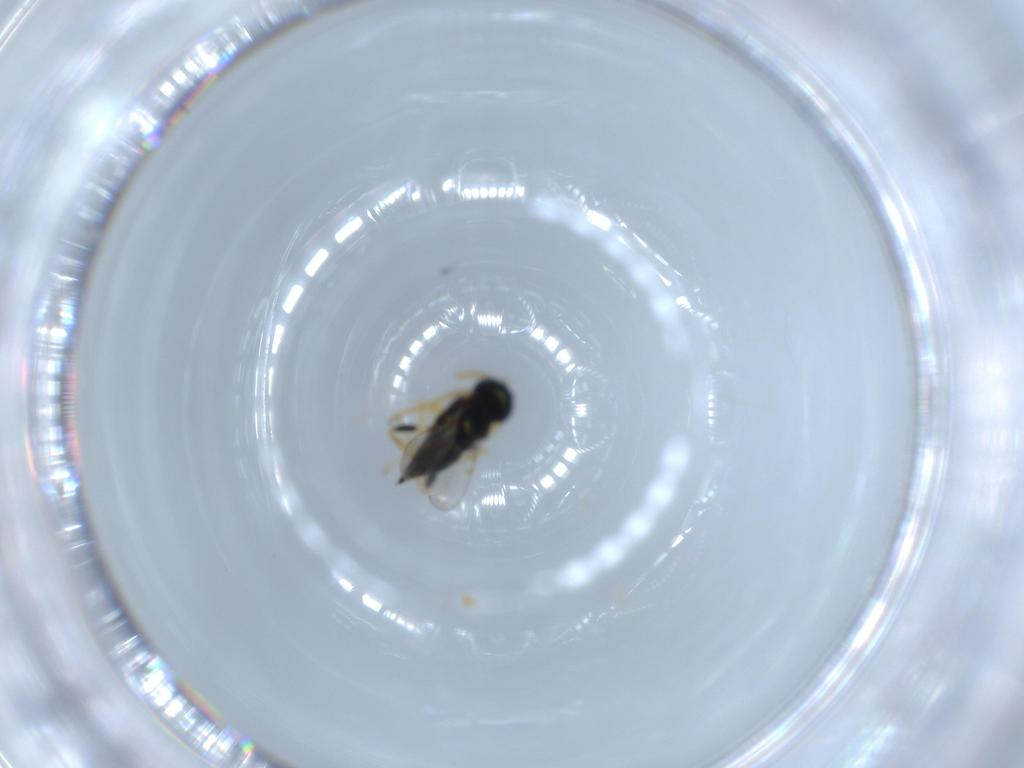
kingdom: Animalia
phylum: Arthropoda
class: Insecta
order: Hymenoptera
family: Encyrtidae
